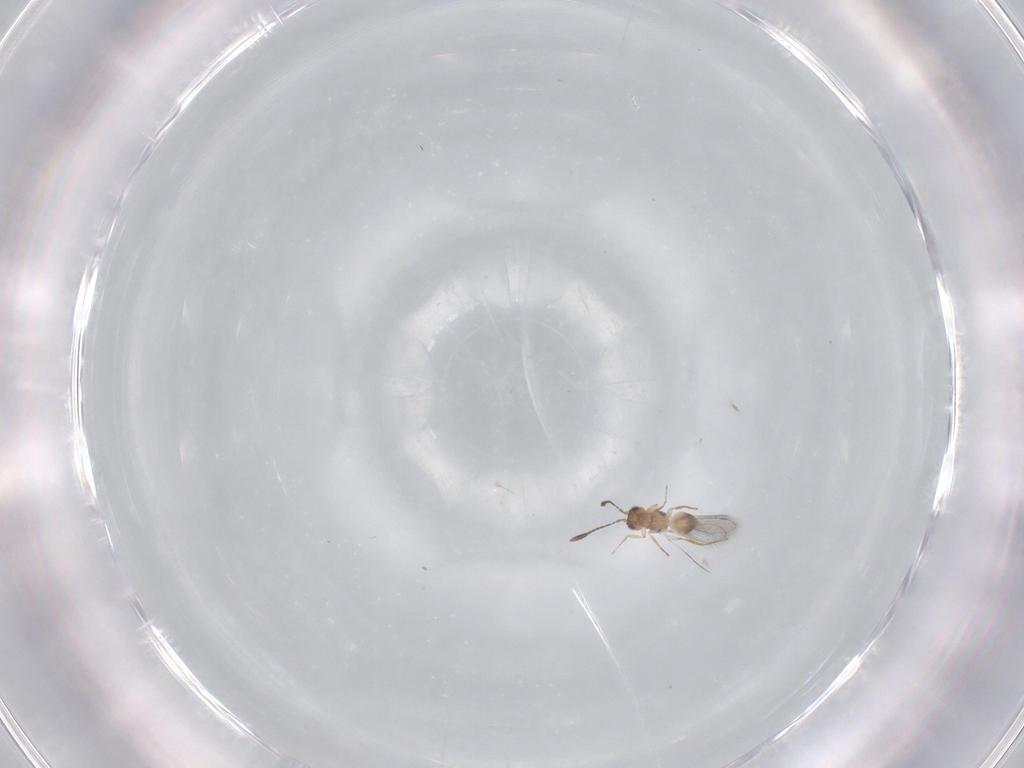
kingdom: Animalia
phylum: Arthropoda
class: Insecta
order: Hymenoptera
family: Mymaridae
